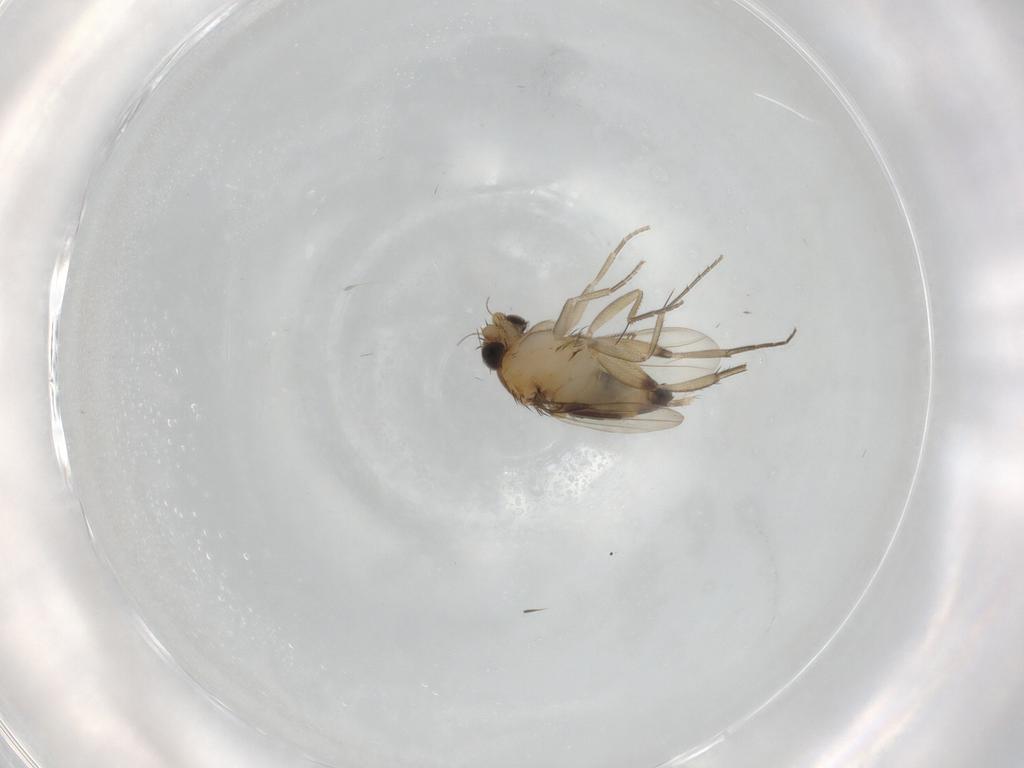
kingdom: Animalia
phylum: Arthropoda
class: Insecta
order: Diptera
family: Phoridae
